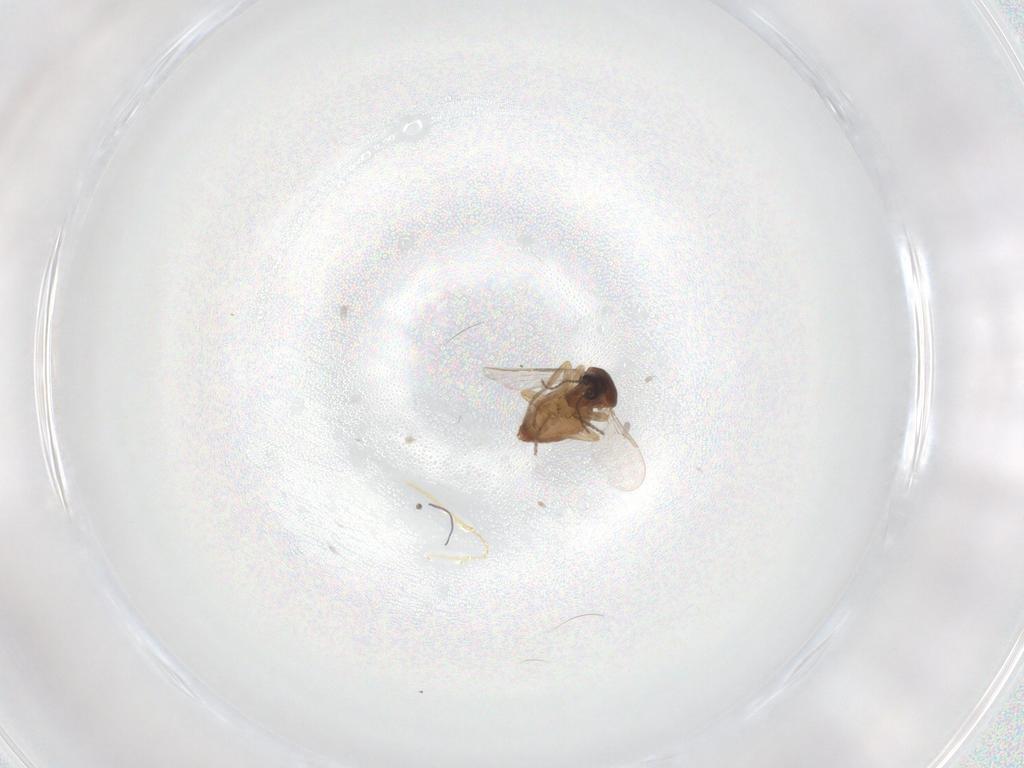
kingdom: Animalia
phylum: Arthropoda
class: Insecta
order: Diptera
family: Ceratopogonidae
